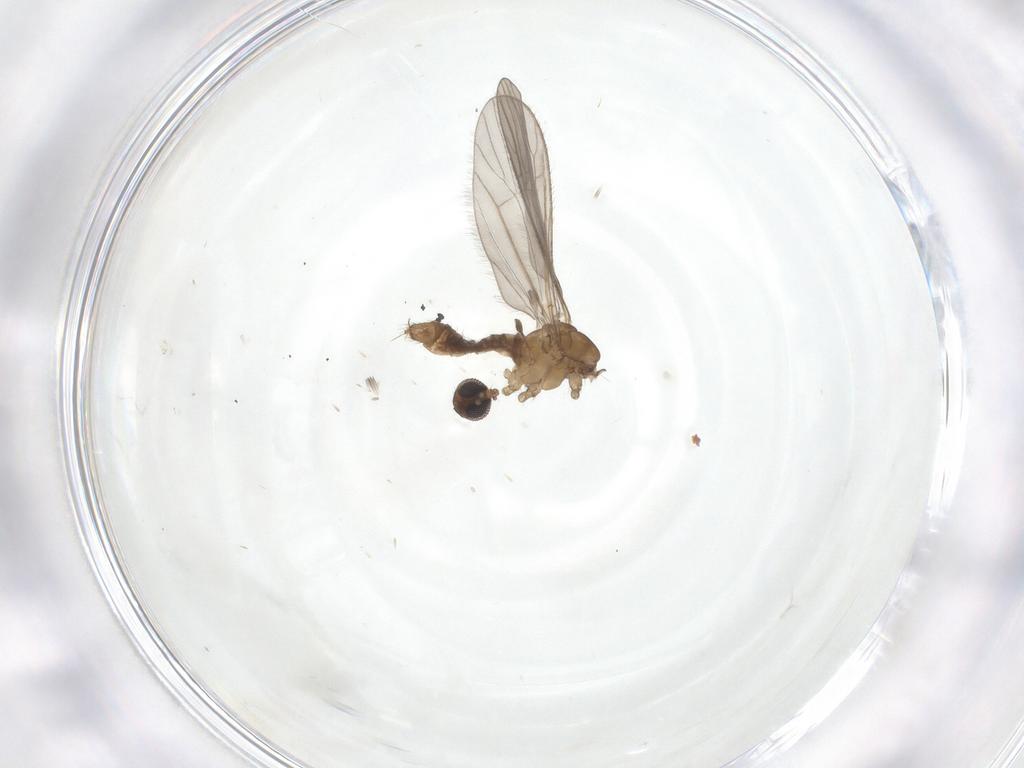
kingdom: Animalia
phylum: Arthropoda
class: Insecta
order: Diptera
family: Limoniidae
